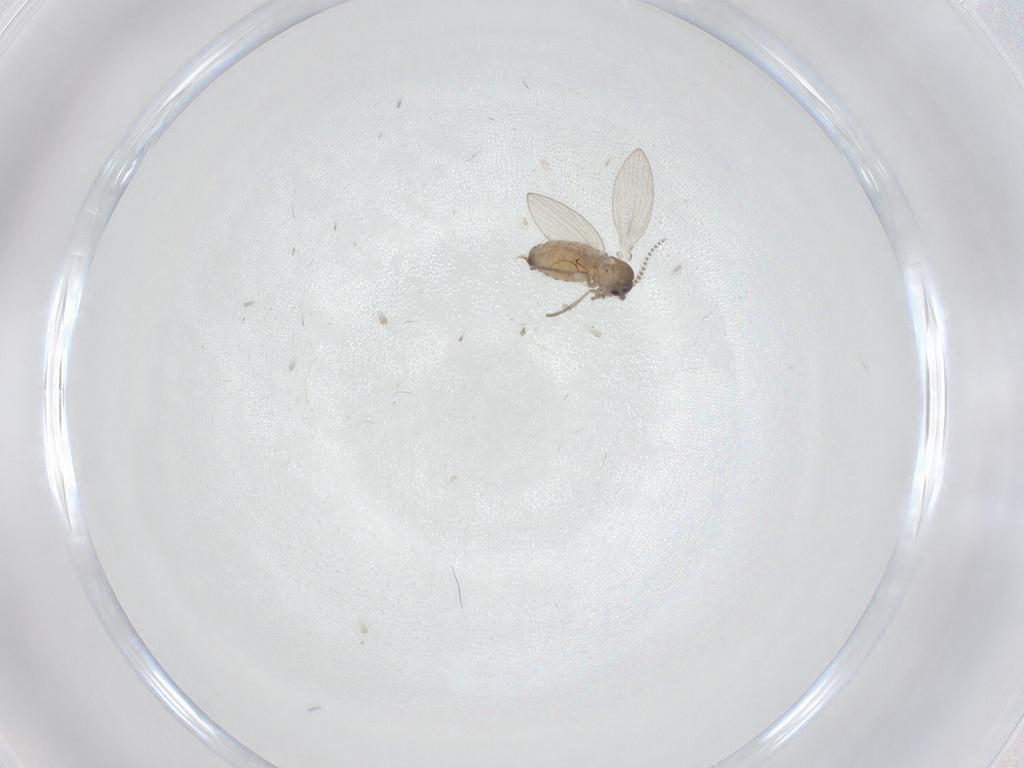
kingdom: Animalia
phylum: Arthropoda
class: Insecta
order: Diptera
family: Psychodidae
